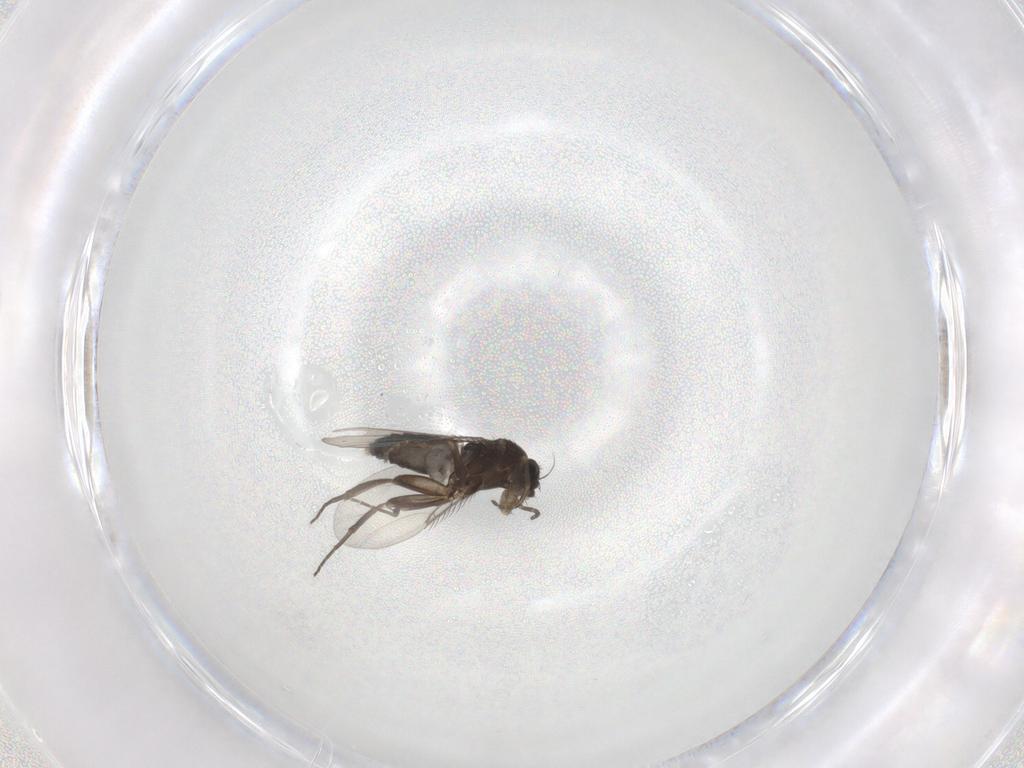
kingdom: Animalia
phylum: Arthropoda
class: Insecta
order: Diptera
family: Phoridae
